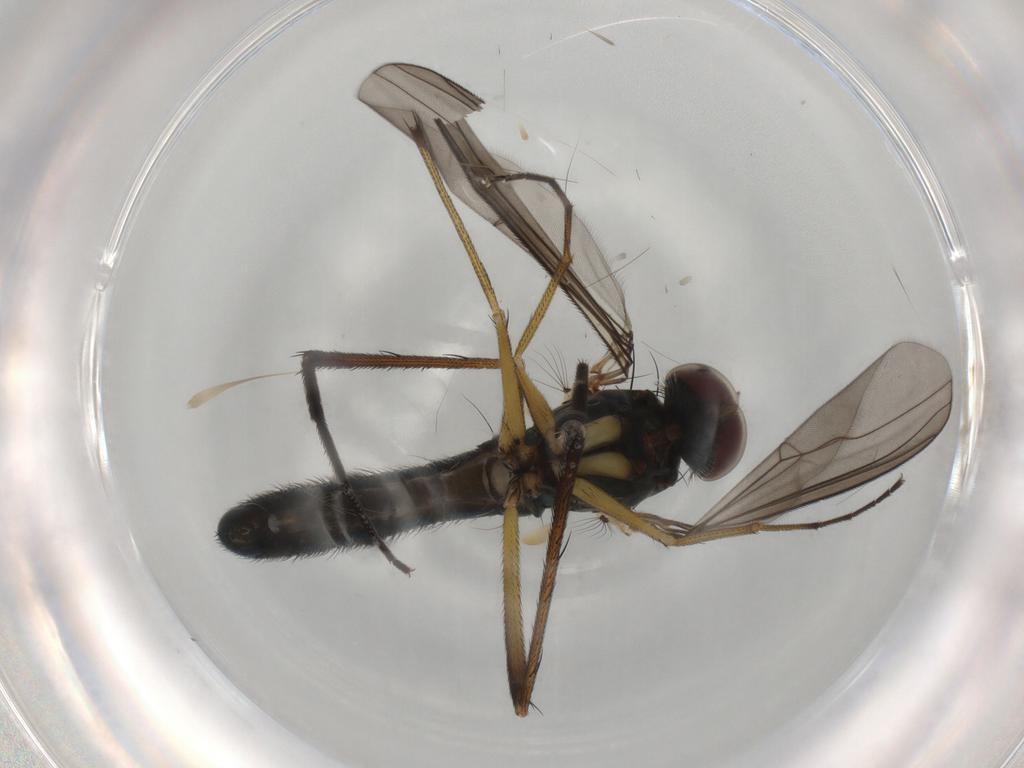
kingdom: Animalia
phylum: Arthropoda
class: Insecta
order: Diptera
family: Dolichopodidae
